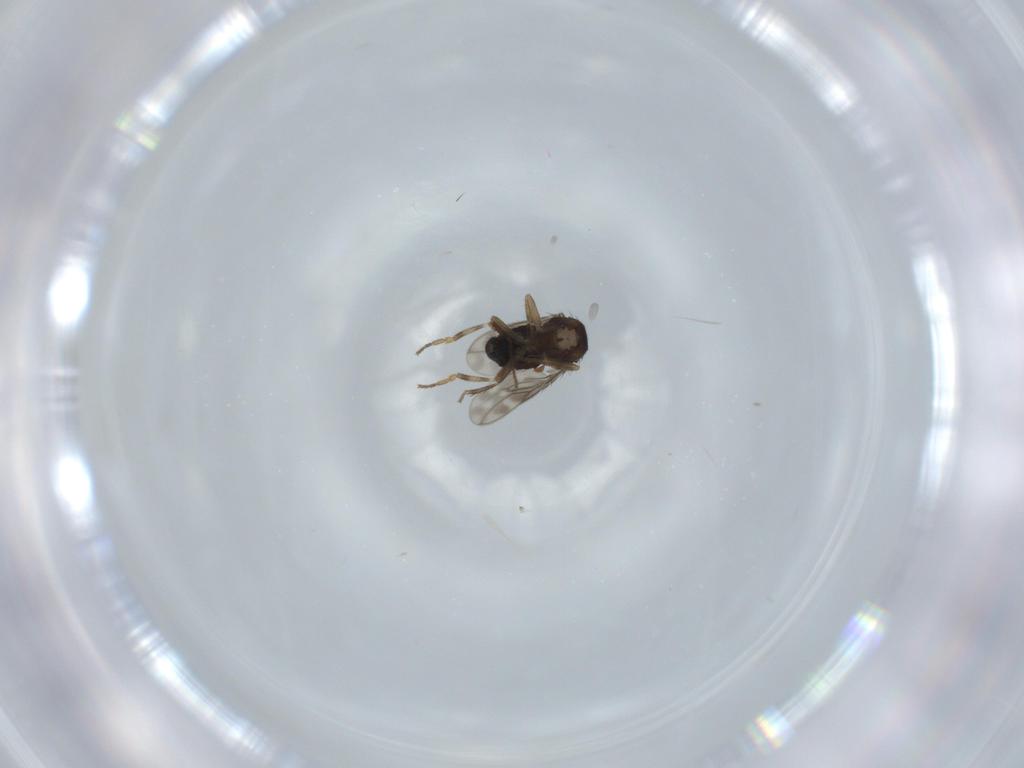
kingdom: Animalia
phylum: Arthropoda
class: Insecta
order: Diptera
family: Sphaeroceridae
